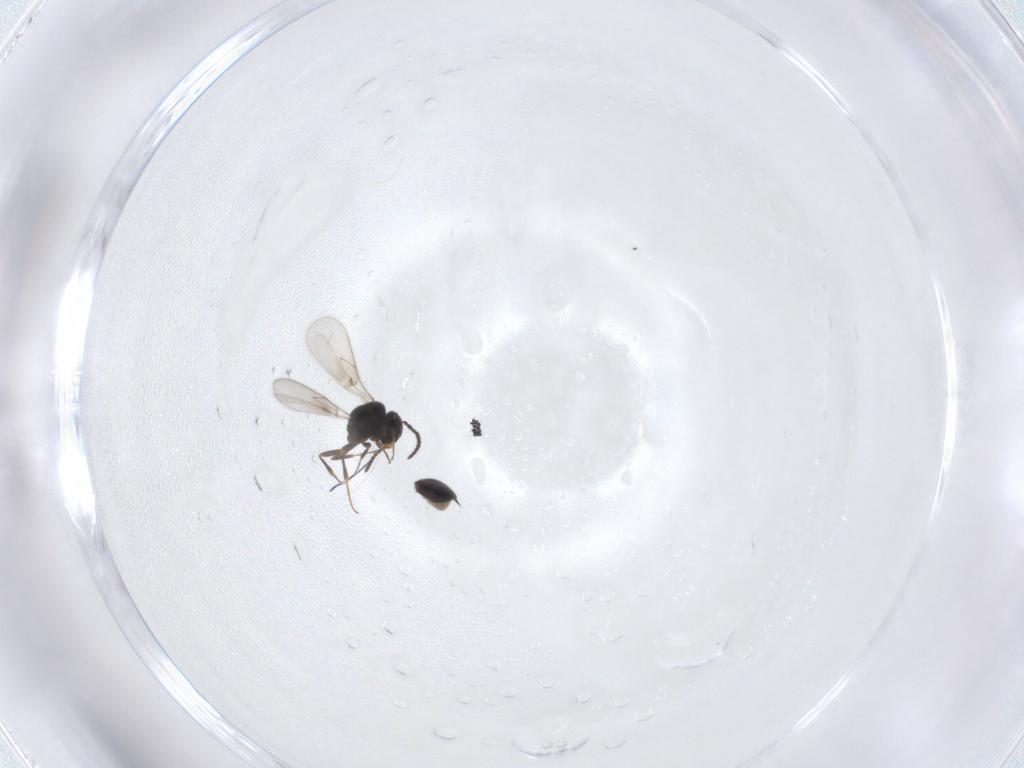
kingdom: Animalia
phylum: Arthropoda
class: Insecta
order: Hymenoptera
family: Scelionidae
